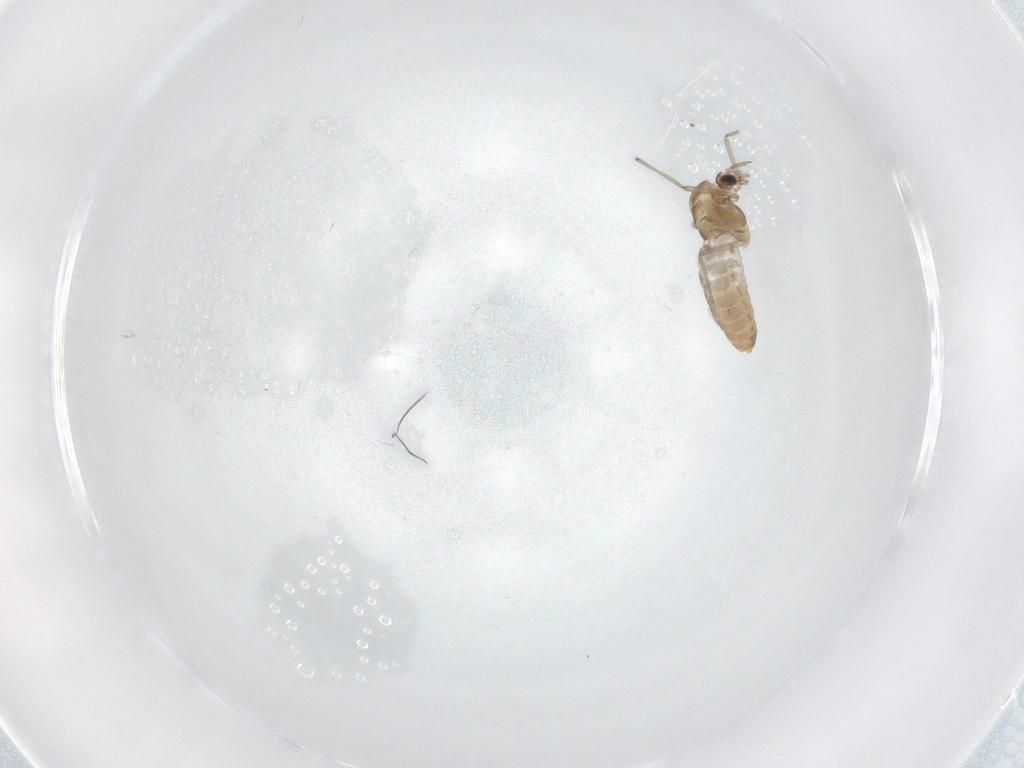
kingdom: Animalia
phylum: Arthropoda
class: Insecta
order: Diptera
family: Chironomidae
